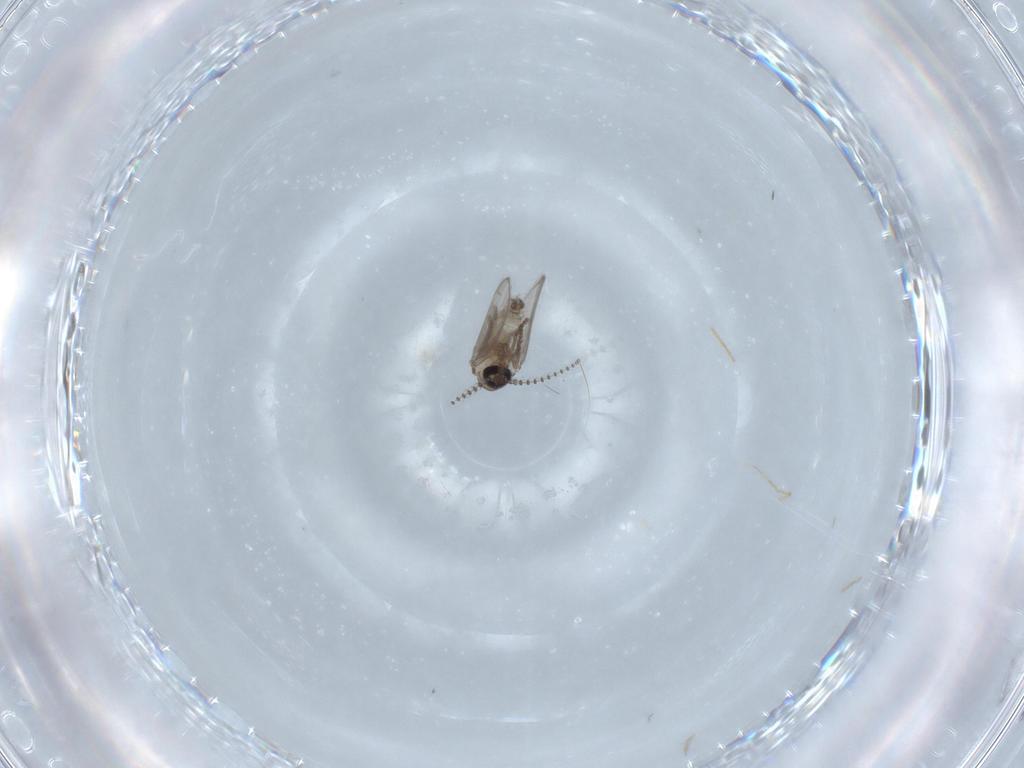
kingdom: Animalia
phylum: Arthropoda
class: Insecta
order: Diptera
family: Psychodidae
